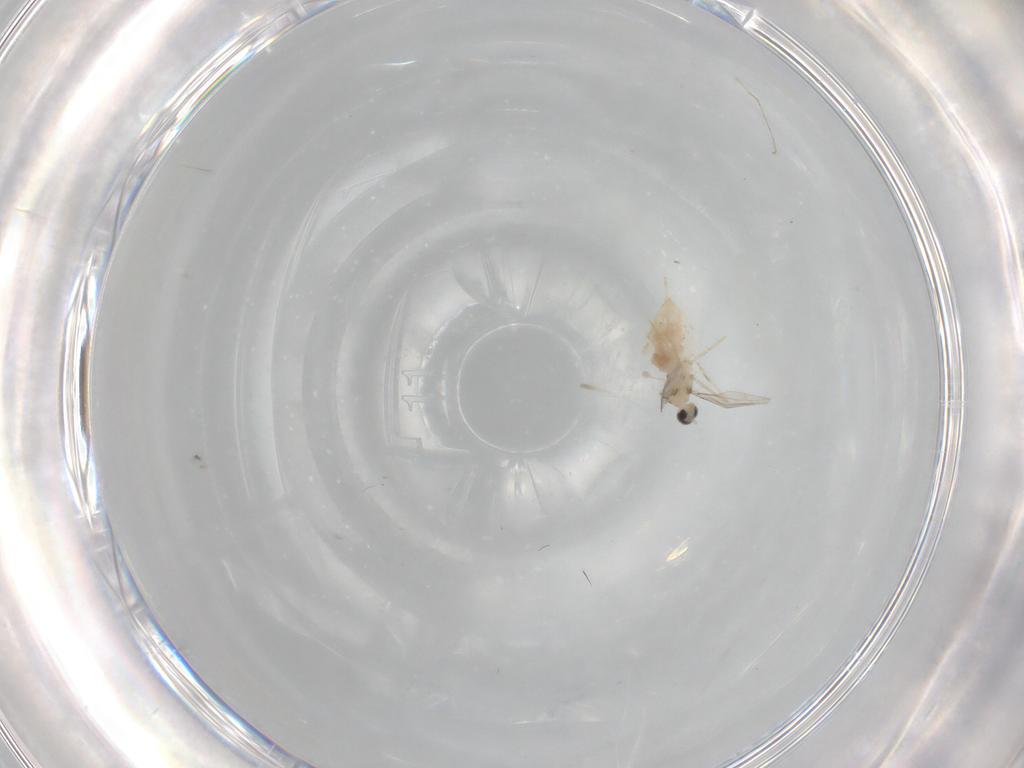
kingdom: Animalia
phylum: Arthropoda
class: Insecta
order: Diptera
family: Cecidomyiidae
